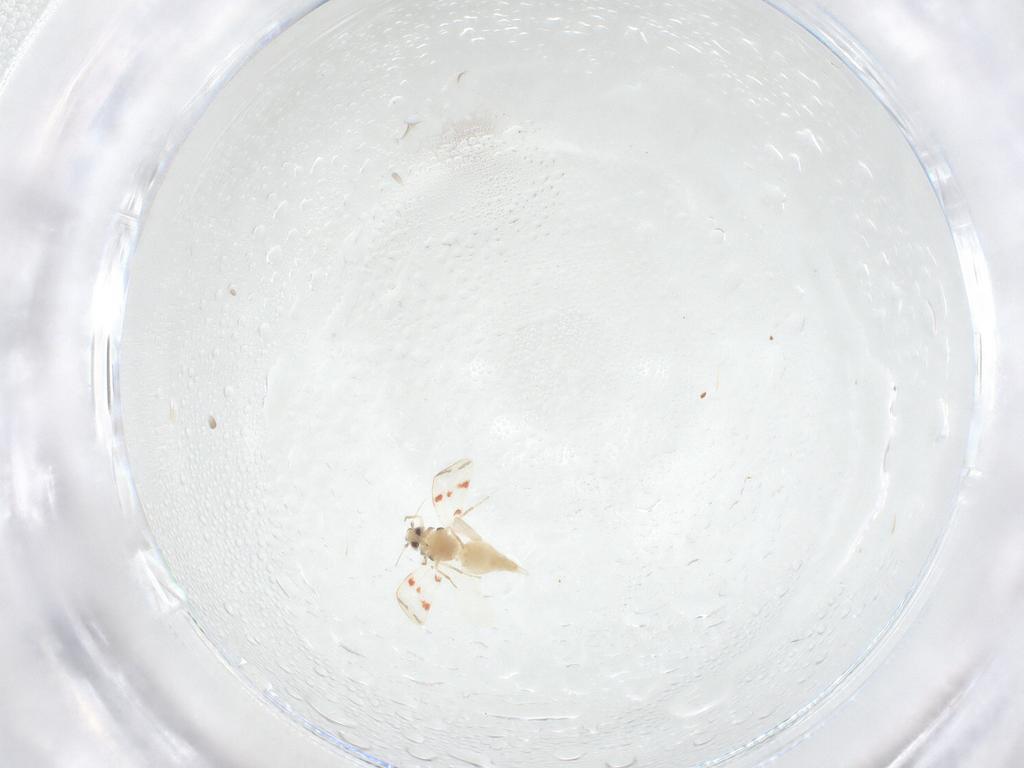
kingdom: Animalia
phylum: Arthropoda
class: Insecta
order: Hemiptera
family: Aleyrodidae
